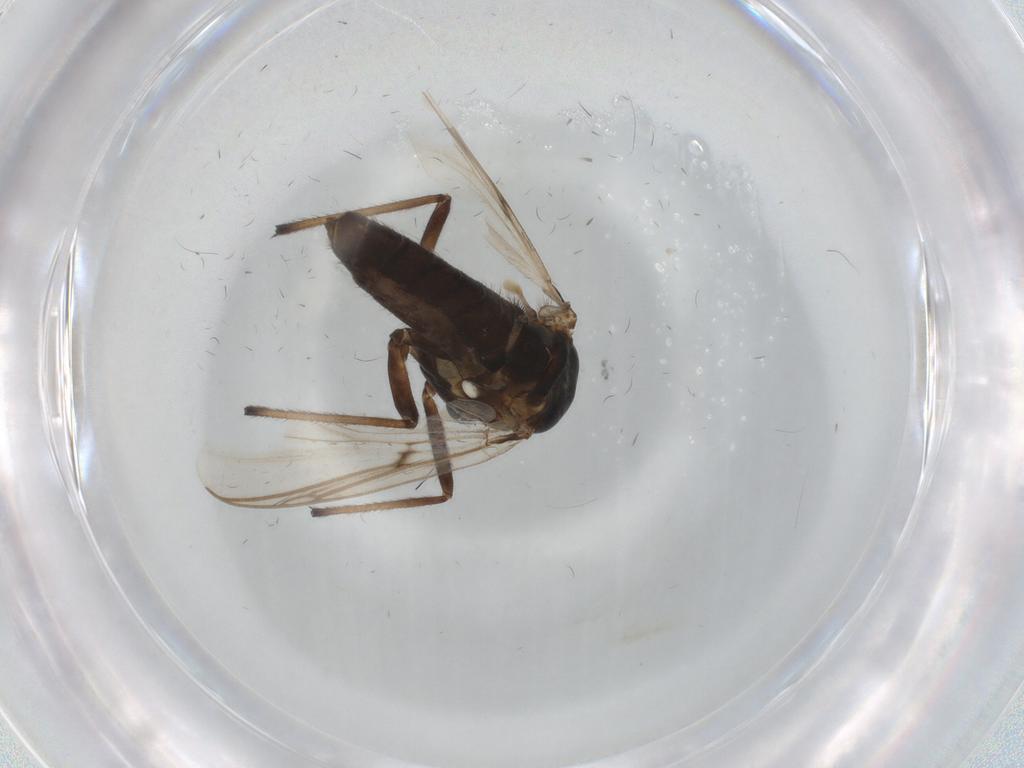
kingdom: Animalia
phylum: Arthropoda
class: Insecta
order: Diptera
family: Chironomidae
